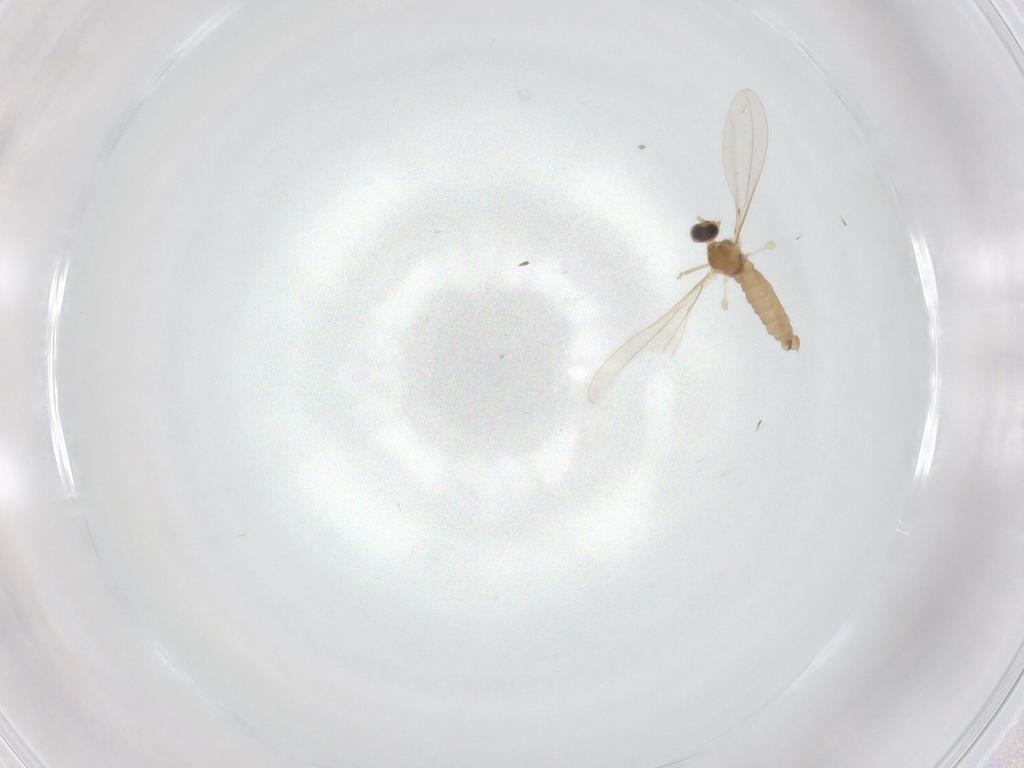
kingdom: Animalia
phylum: Arthropoda
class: Insecta
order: Diptera
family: Cecidomyiidae
